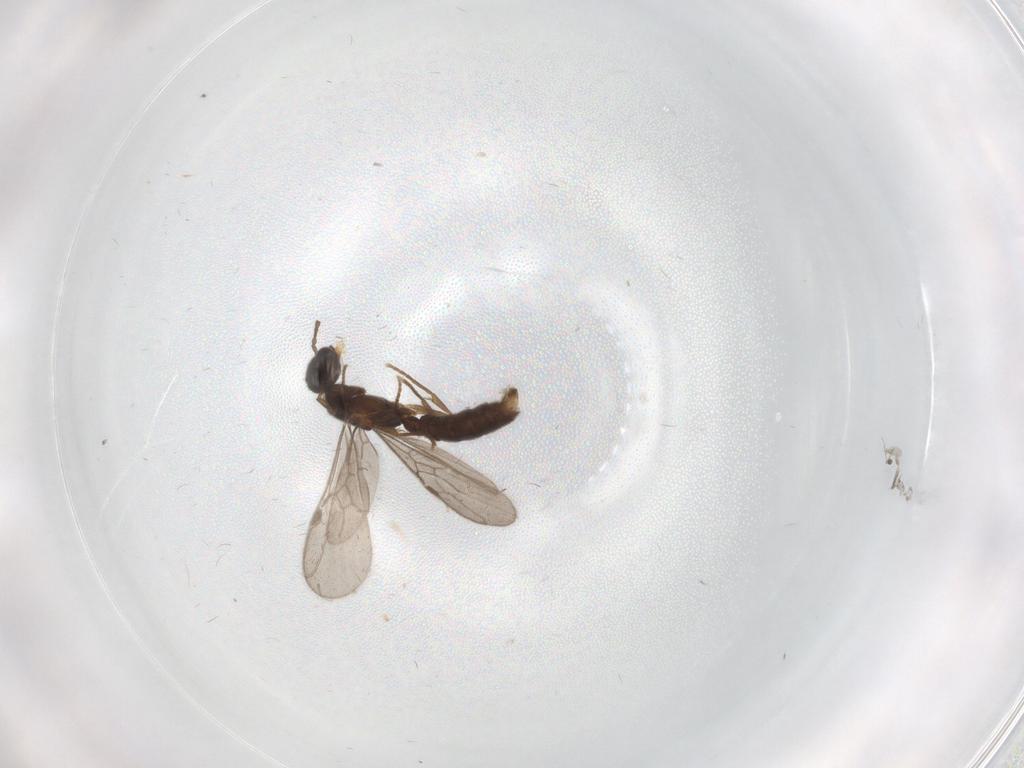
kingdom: Animalia
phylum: Arthropoda
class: Insecta
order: Hymenoptera
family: Formicidae
